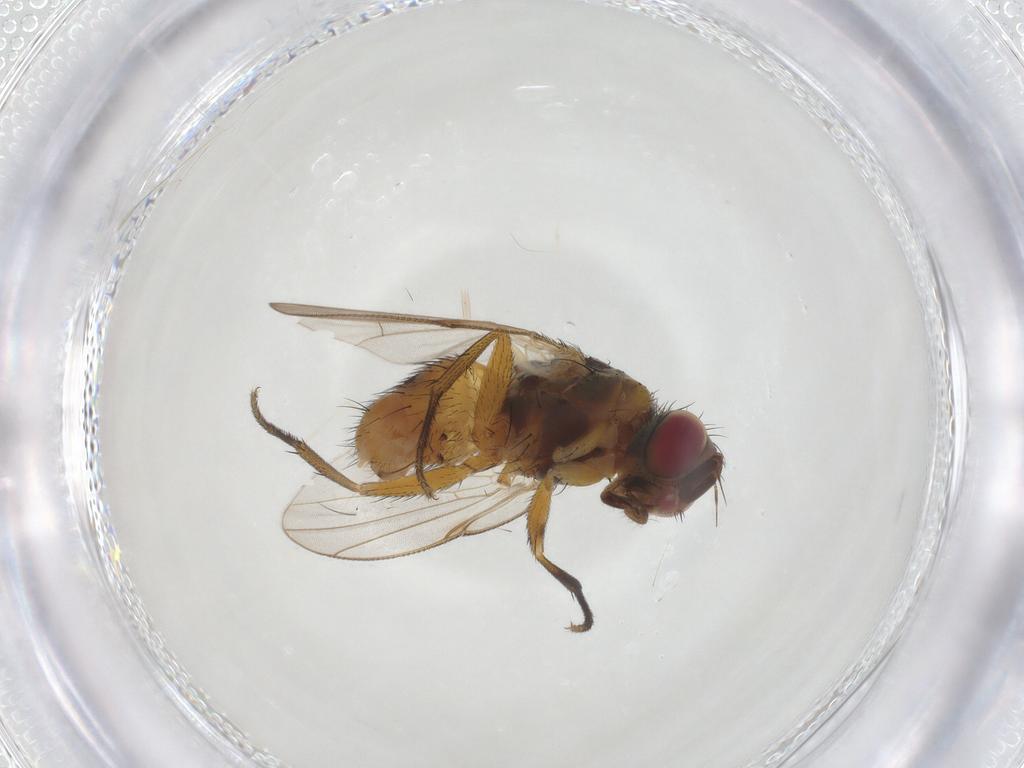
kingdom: Animalia
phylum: Arthropoda
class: Insecta
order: Diptera
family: Muscidae
